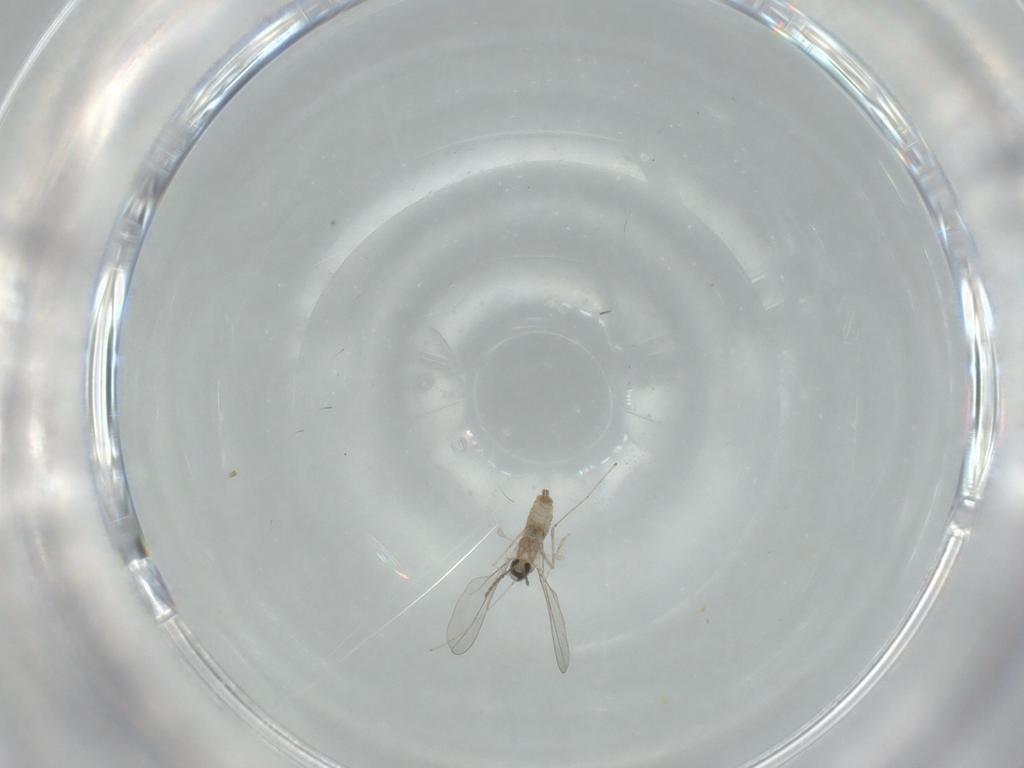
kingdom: Animalia
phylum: Arthropoda
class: Insecta
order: Diptera
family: Cecidomyiidae
